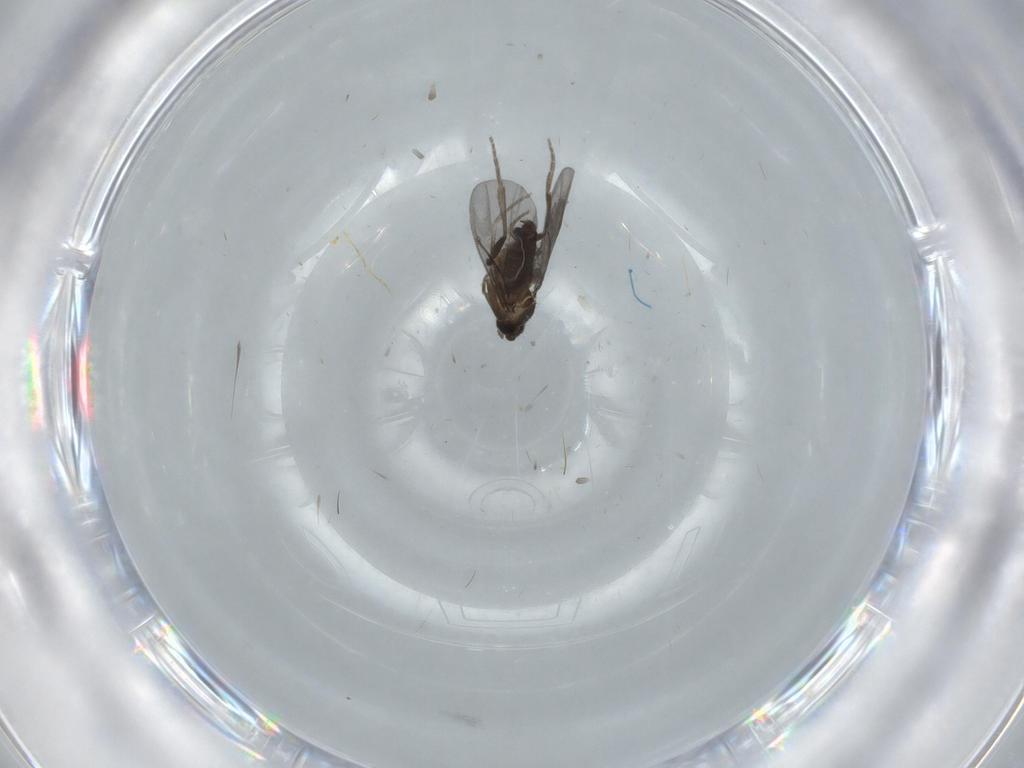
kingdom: Animalia
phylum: Arthropoda
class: Insecta
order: Diptera
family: Phoridae
